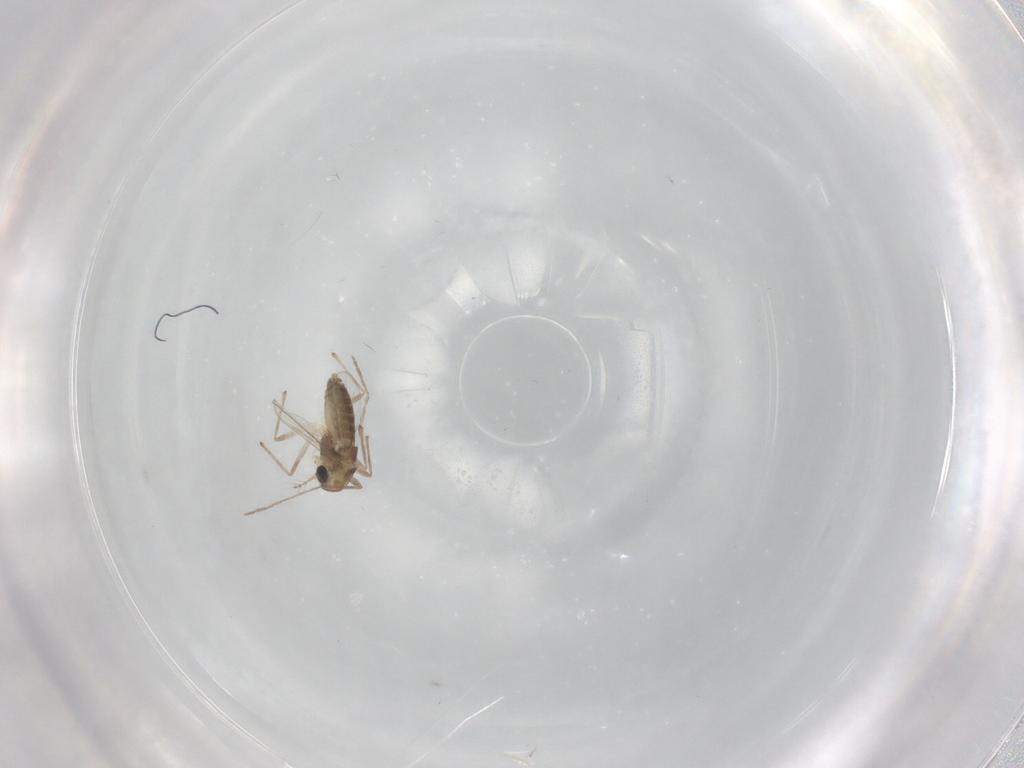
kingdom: Animalia
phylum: Arthropoda
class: Insecta
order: Diptera
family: Chironomidae
